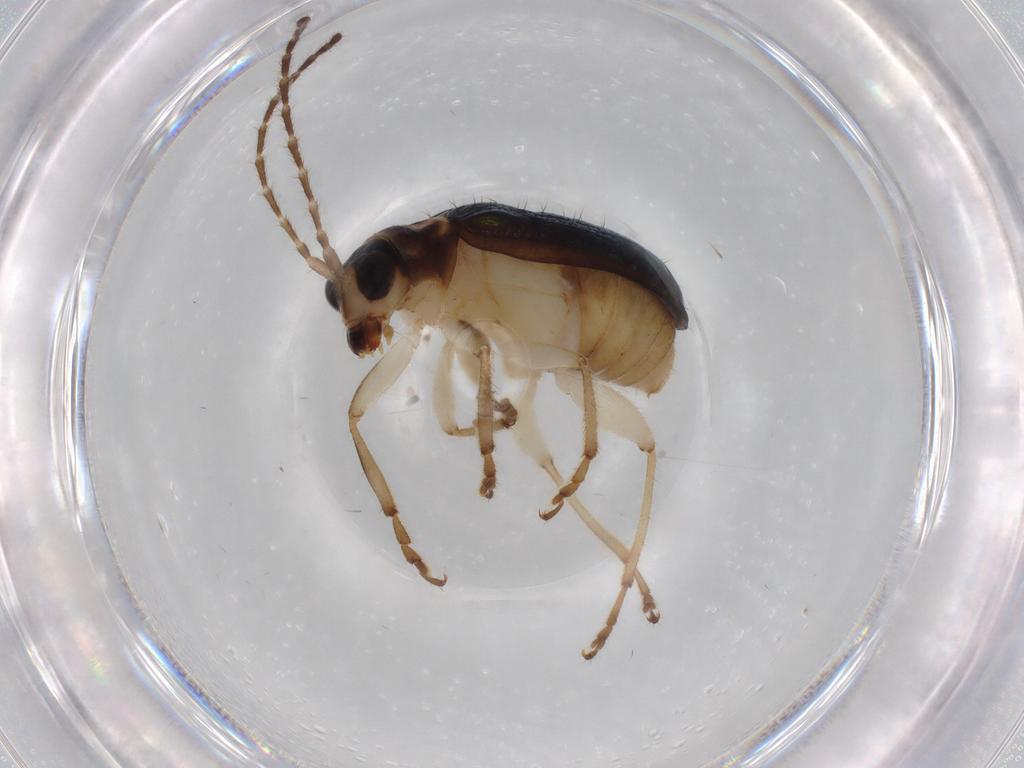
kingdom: Animalia
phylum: Arthropoda
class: Insecta
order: Coleoptera
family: Chrysomelidae
